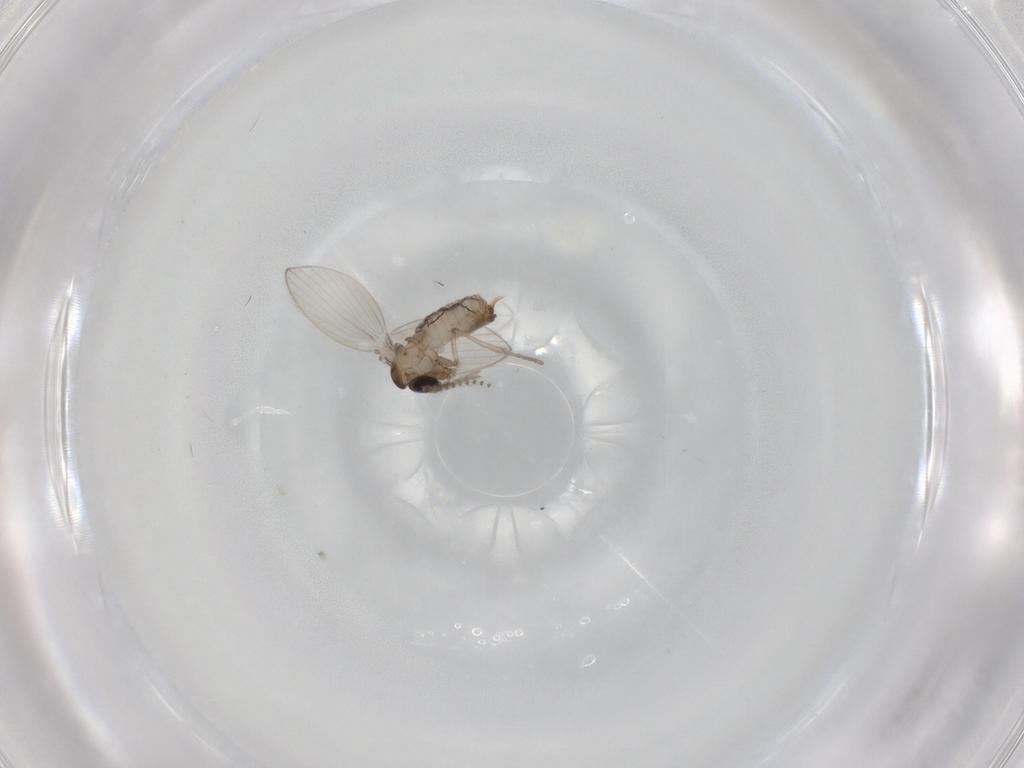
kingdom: Animalia
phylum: Arthropoda
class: Insecta
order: Diptera
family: Psychodidae
